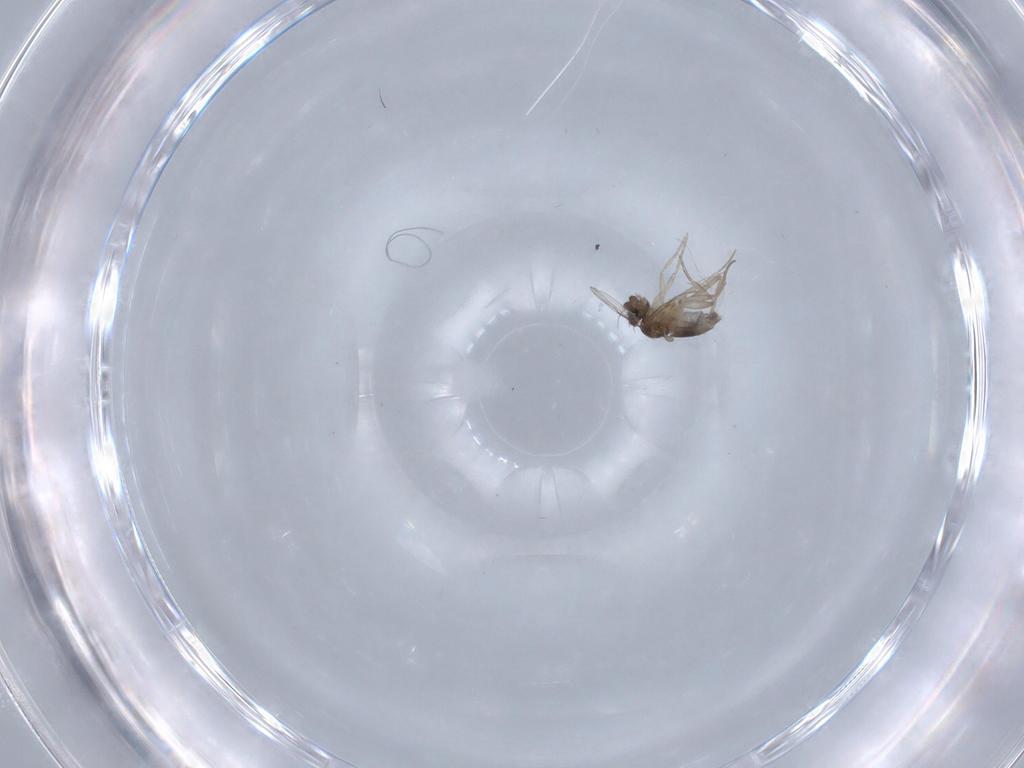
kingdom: Animalia
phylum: Arthropoda
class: Insecta
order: Diptera
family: Chironomidae
